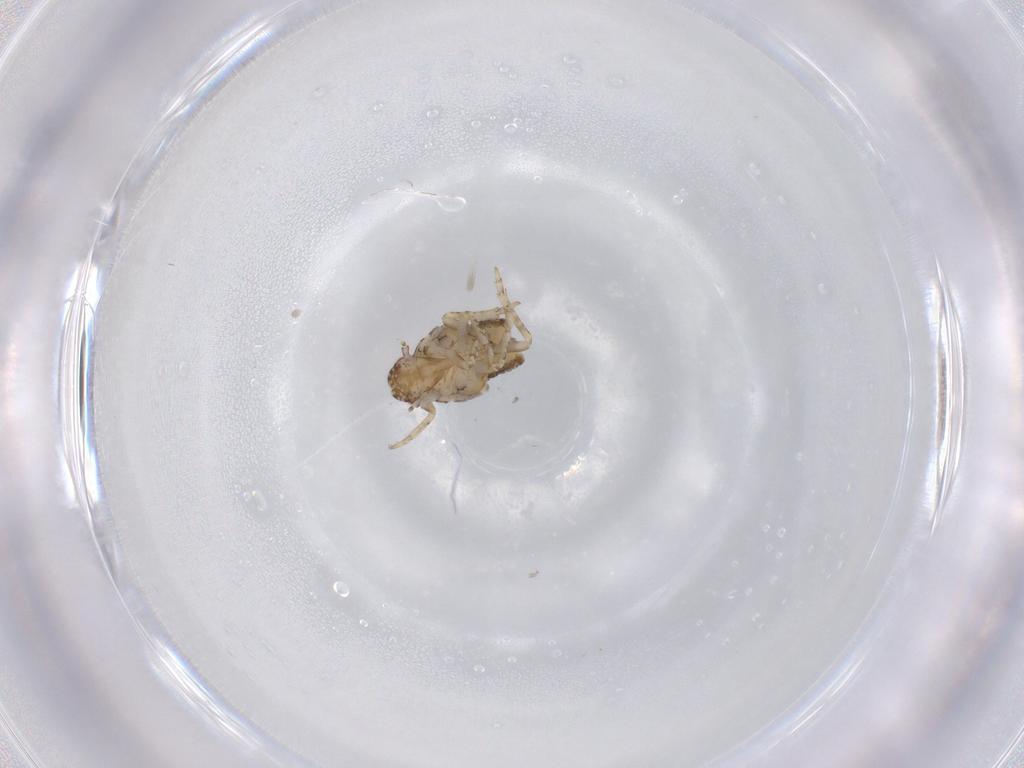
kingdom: Animalia
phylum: Arthropoda
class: Insecta
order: Hemiptera
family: Flatidae
